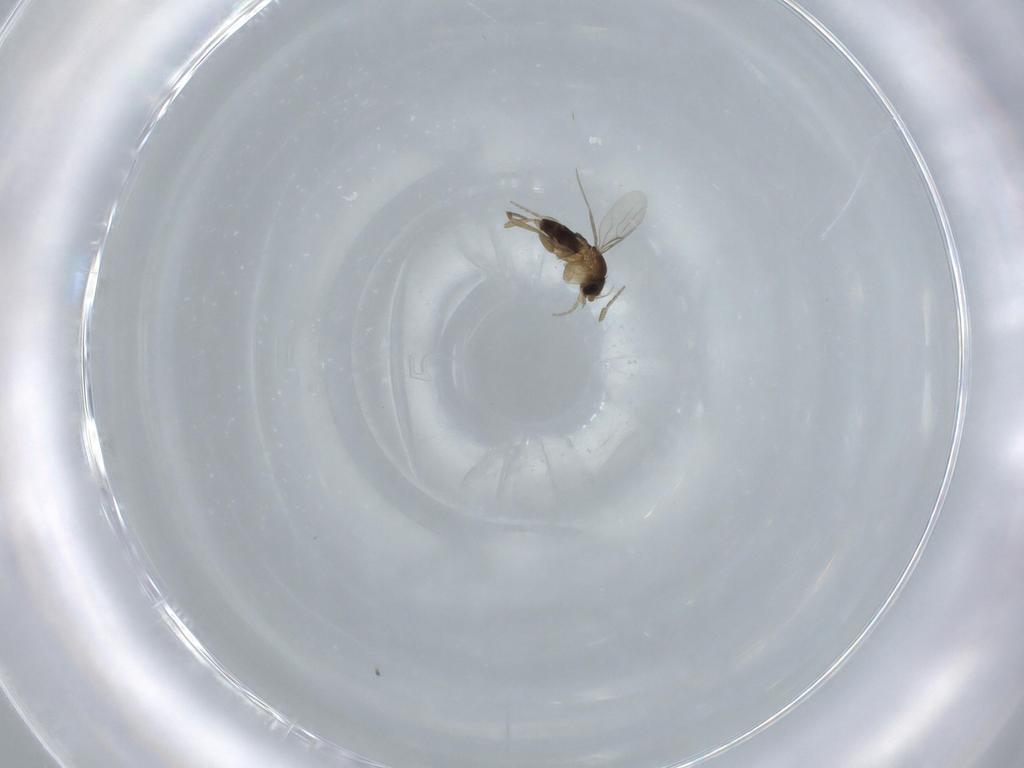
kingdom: Animalia
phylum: Arthropoda
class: Insecta
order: Diptera
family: Phoridae
